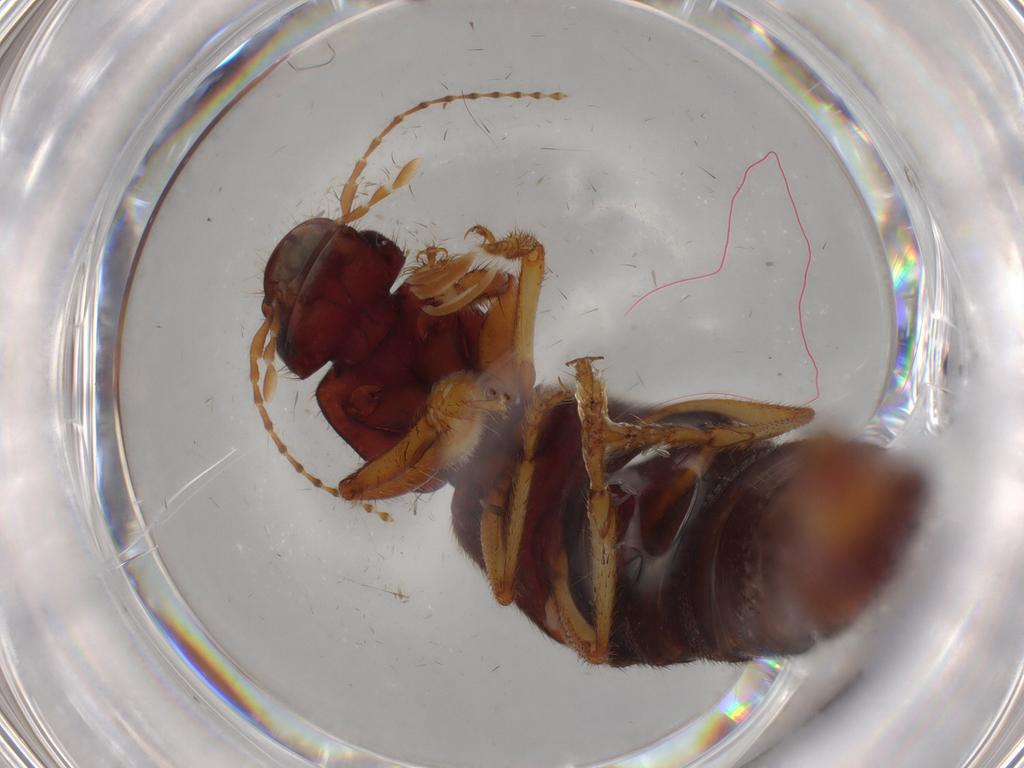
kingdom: Animalia
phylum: Arthropoda
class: Insecta
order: Coleoptera
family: Staphylinidae
